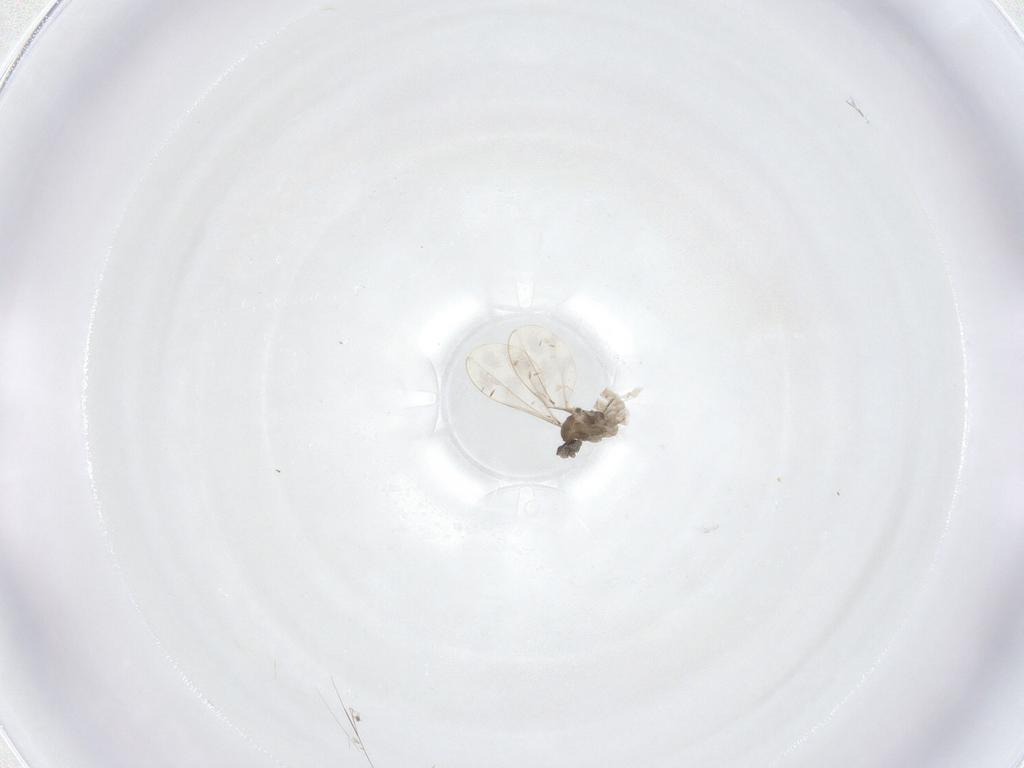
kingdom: Animalia
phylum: Arthropoda
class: Insecta
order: Diptera
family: Cecidomyiidae
